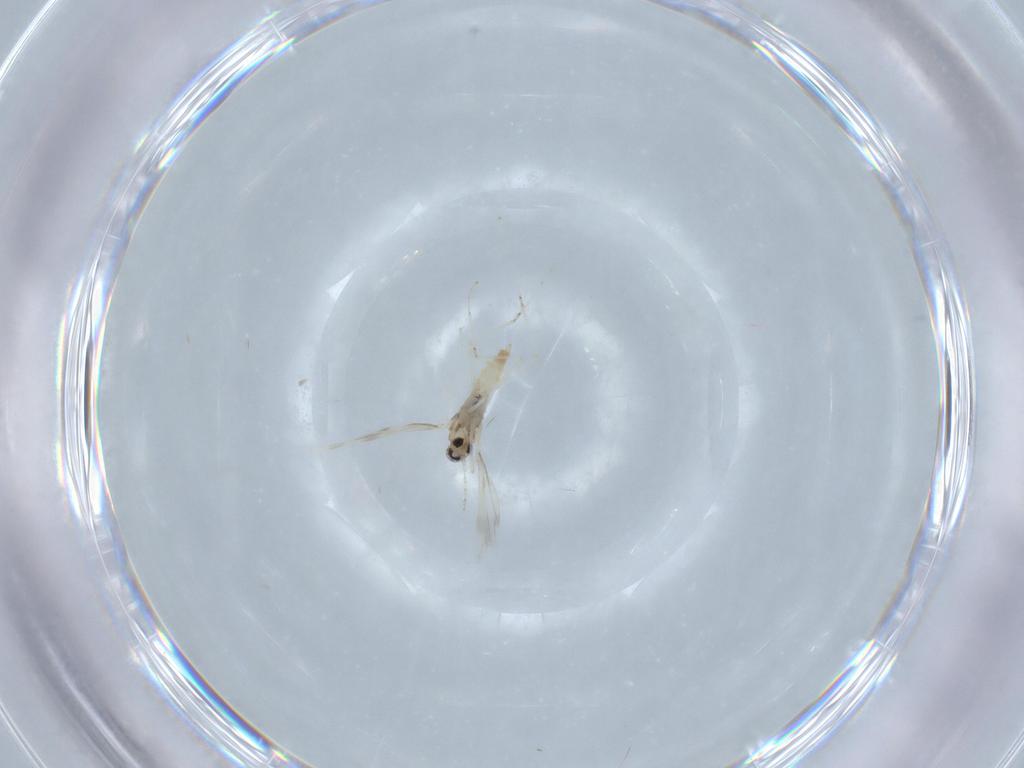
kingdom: Animalia
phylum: Arthropoda
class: Insecta
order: Diptera
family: Cecidomyiidae
